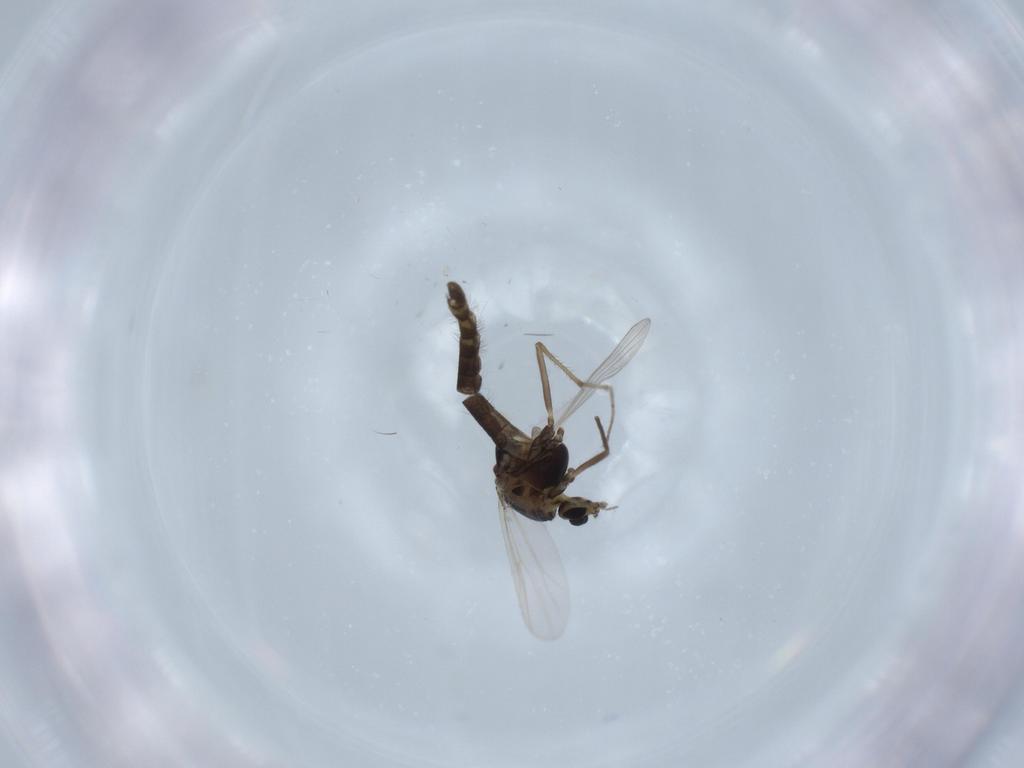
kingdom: Animalia
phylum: Arthropoda
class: Insecta
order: Diptera
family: Chironomidae
